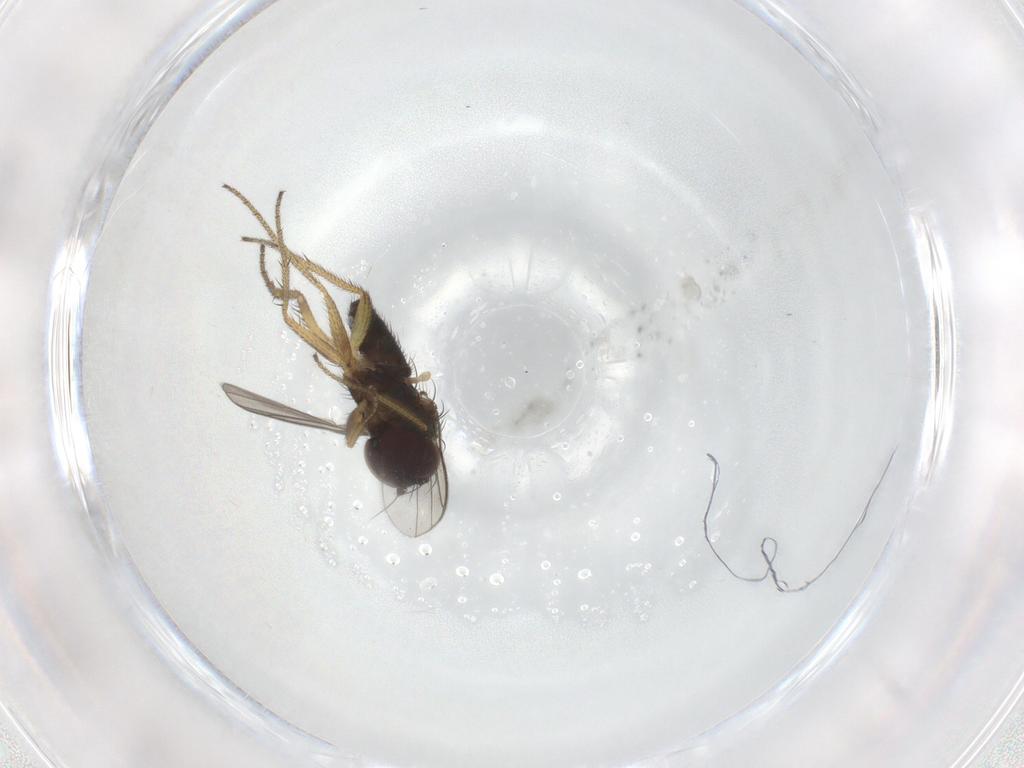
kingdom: Animalia
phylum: Arthropoda
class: Insecta
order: Diptera
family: Dolichopodidae
